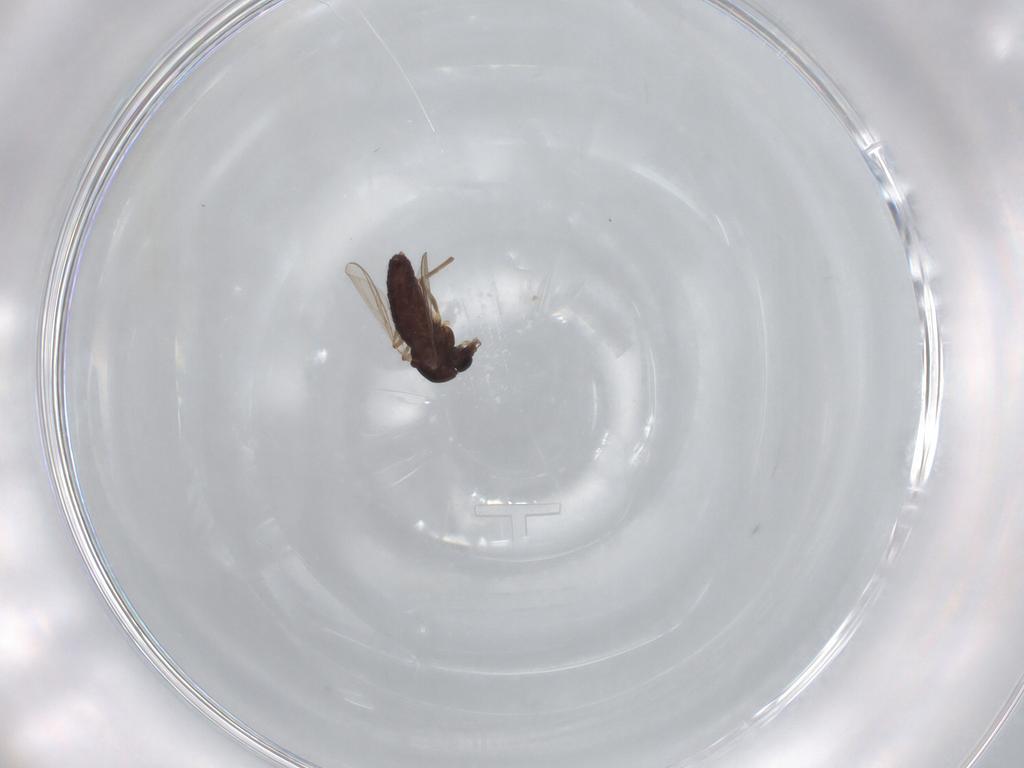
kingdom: Animalia
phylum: Arthropoda
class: Insecta
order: Diptera
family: Chironomidae
